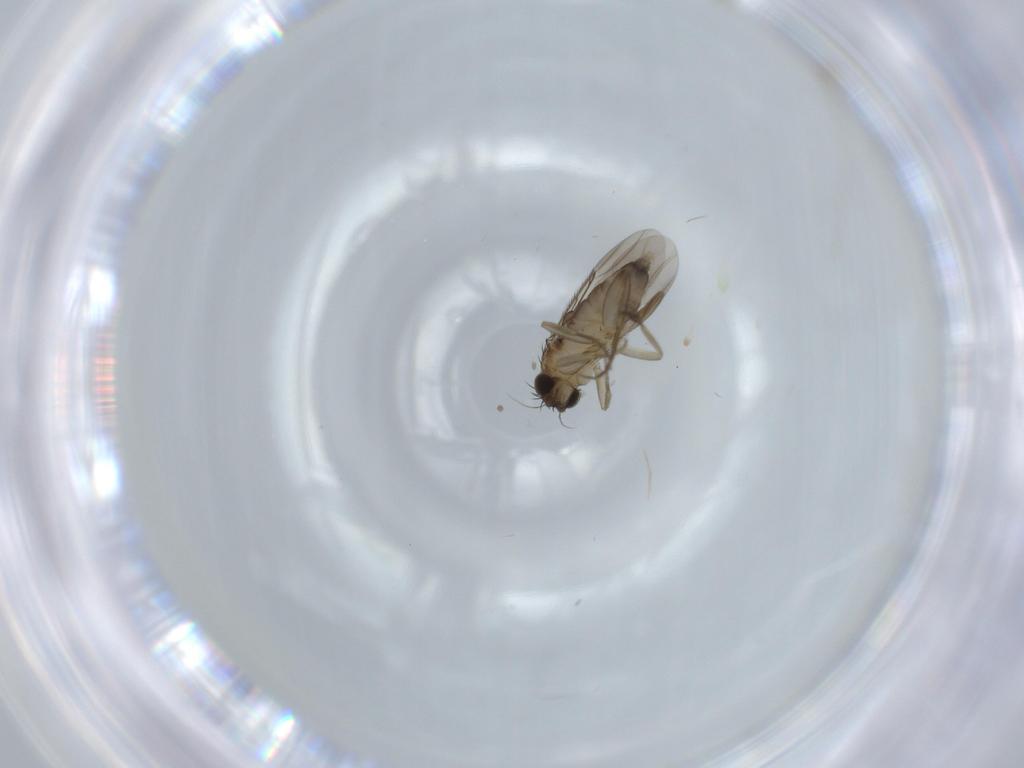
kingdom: Animalia
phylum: Arthropoda
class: Insecta
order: Diptera
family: Phoridae
